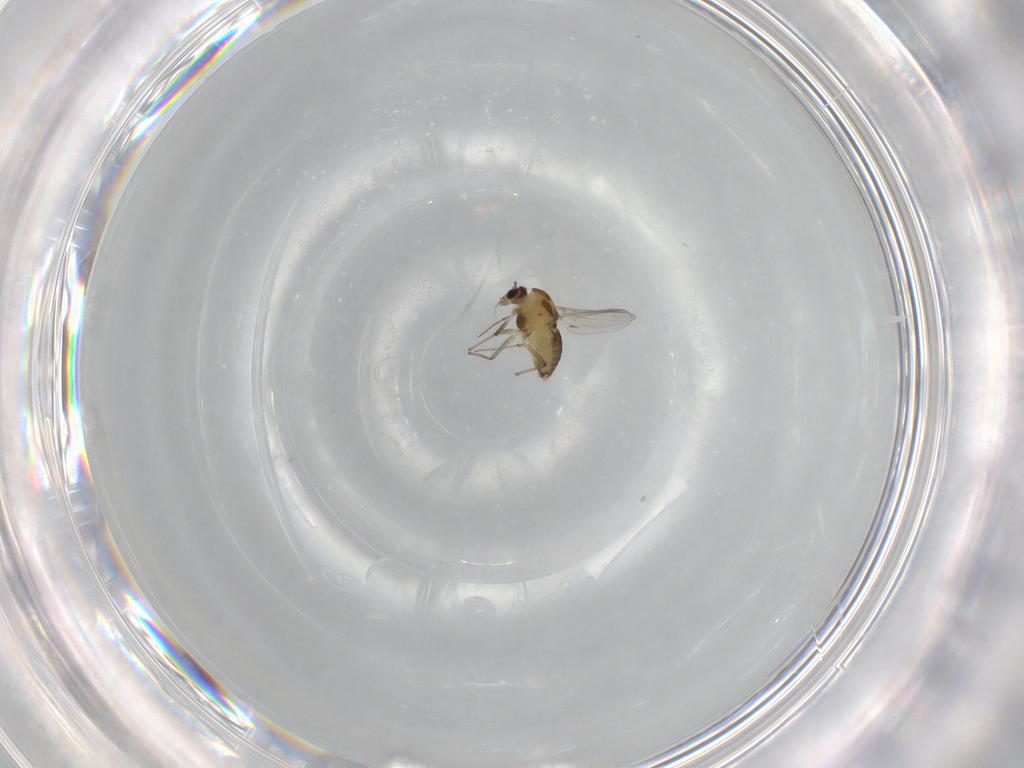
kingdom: Animalia
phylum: Arthropoda
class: Insecta
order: Diptera
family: Chironomidae
